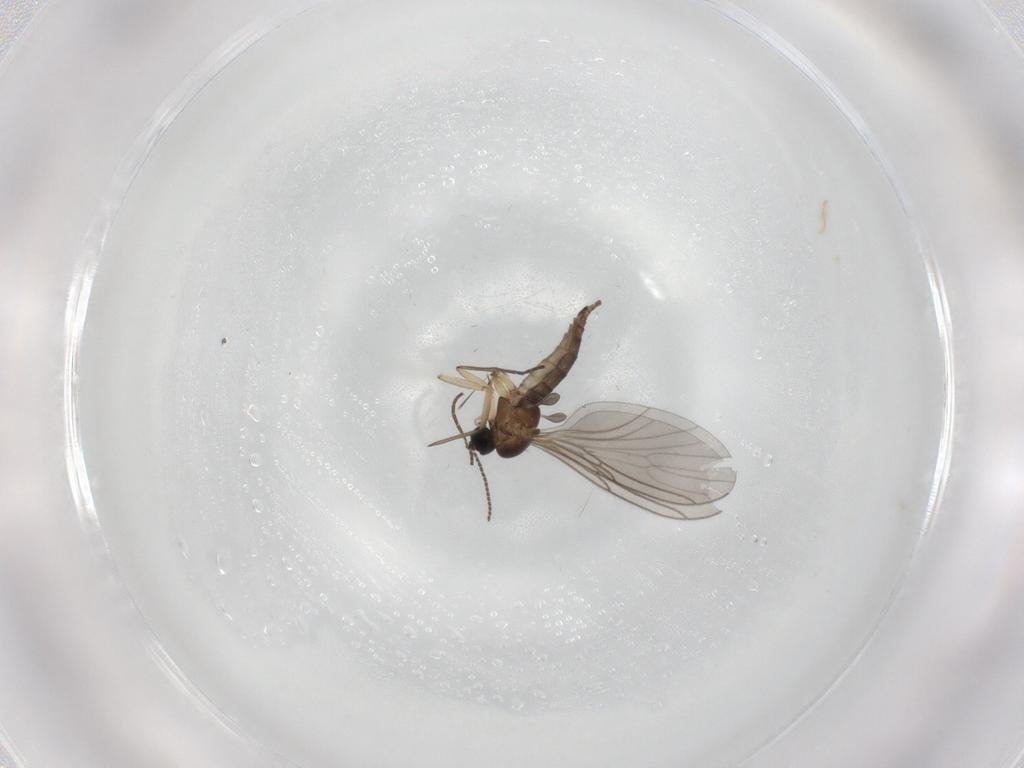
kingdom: Animalia
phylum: Arthropoda
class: Insecta
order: Diptera
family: Sciaridae
